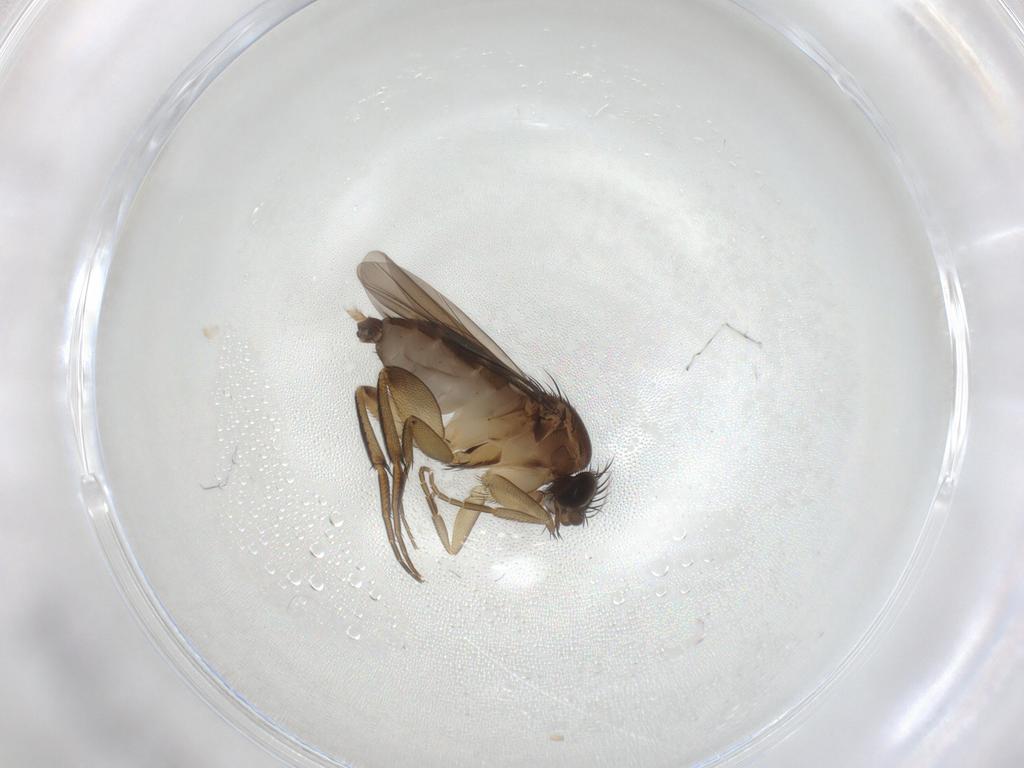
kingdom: Animalia
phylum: Arthropoda
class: Insecta
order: Diptera
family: Phoridae
